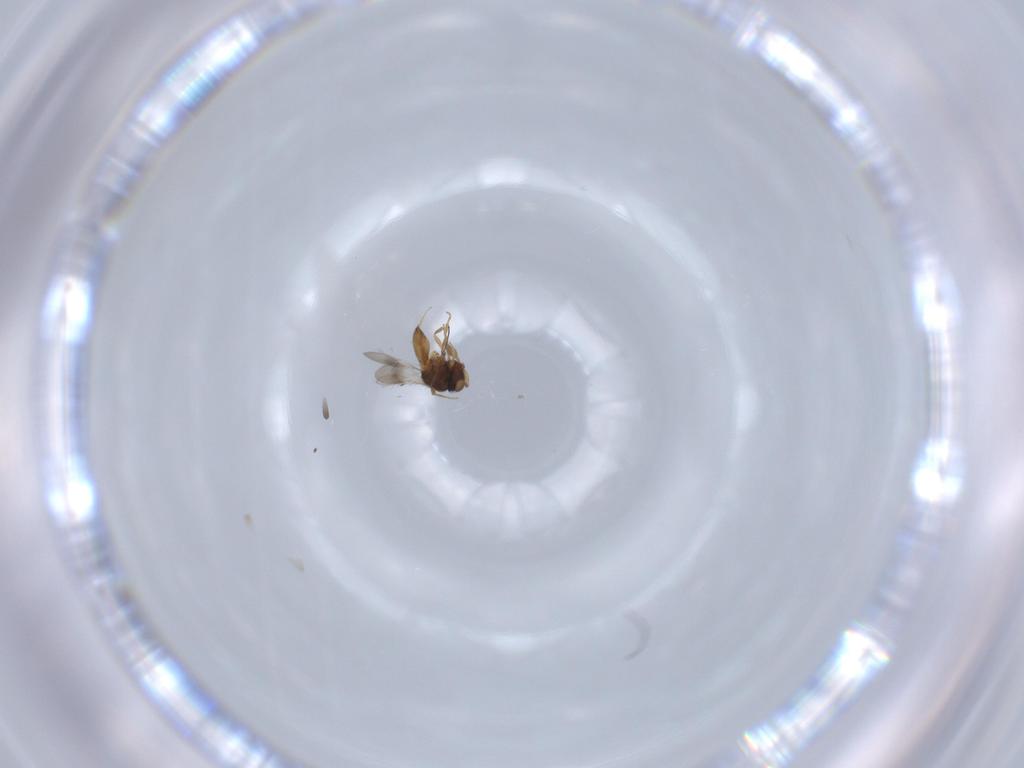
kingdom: Animalia
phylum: Arthropoda
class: Insecta
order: Hymenoptera
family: Scelionidae
